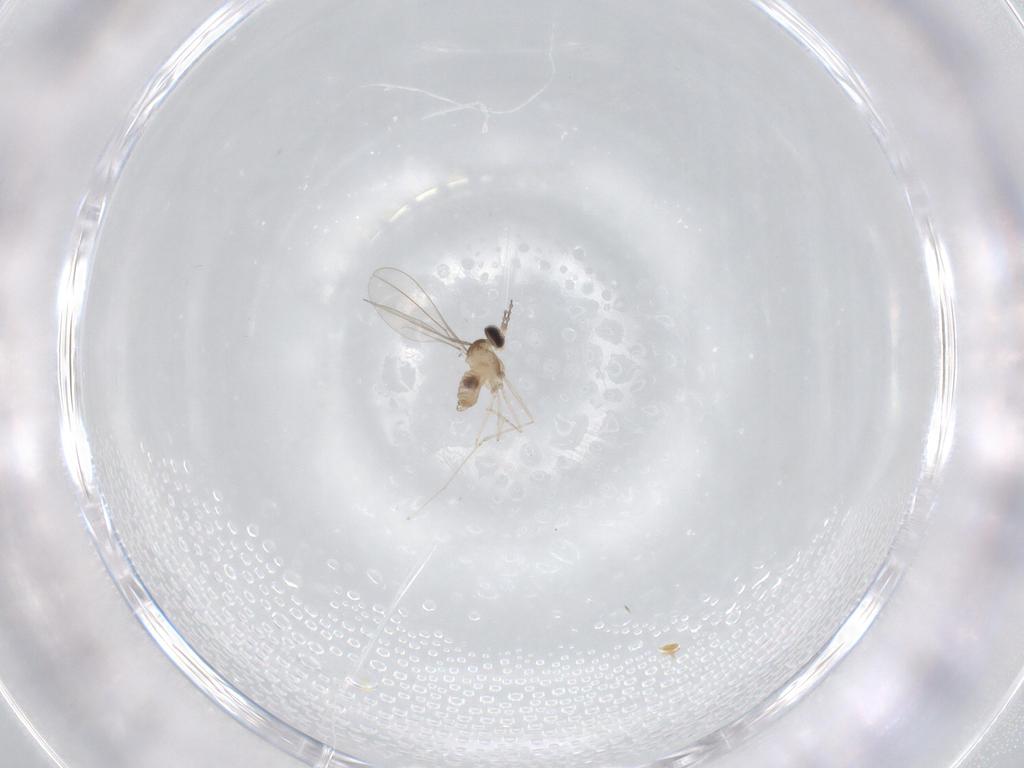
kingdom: Animalia
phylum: Arthropoda
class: Insecta
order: Diptera
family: Cecidomyiidae
